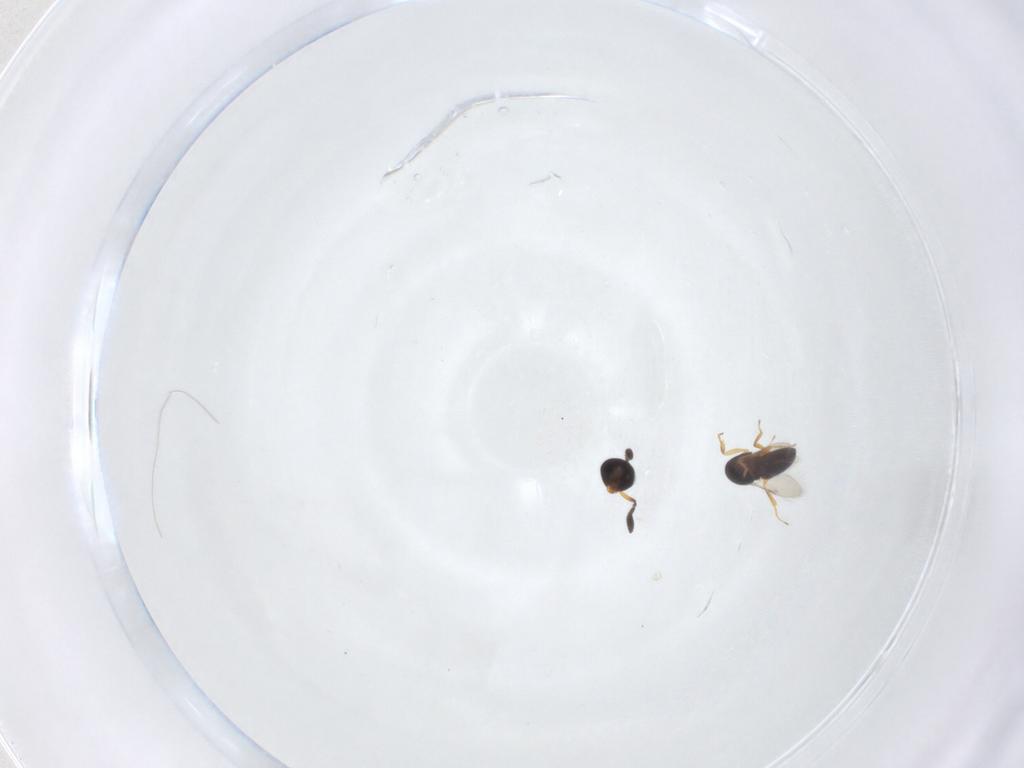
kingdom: Animalia
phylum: Arthropoda
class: Insecta
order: Hymenoptera
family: Scelionidae
